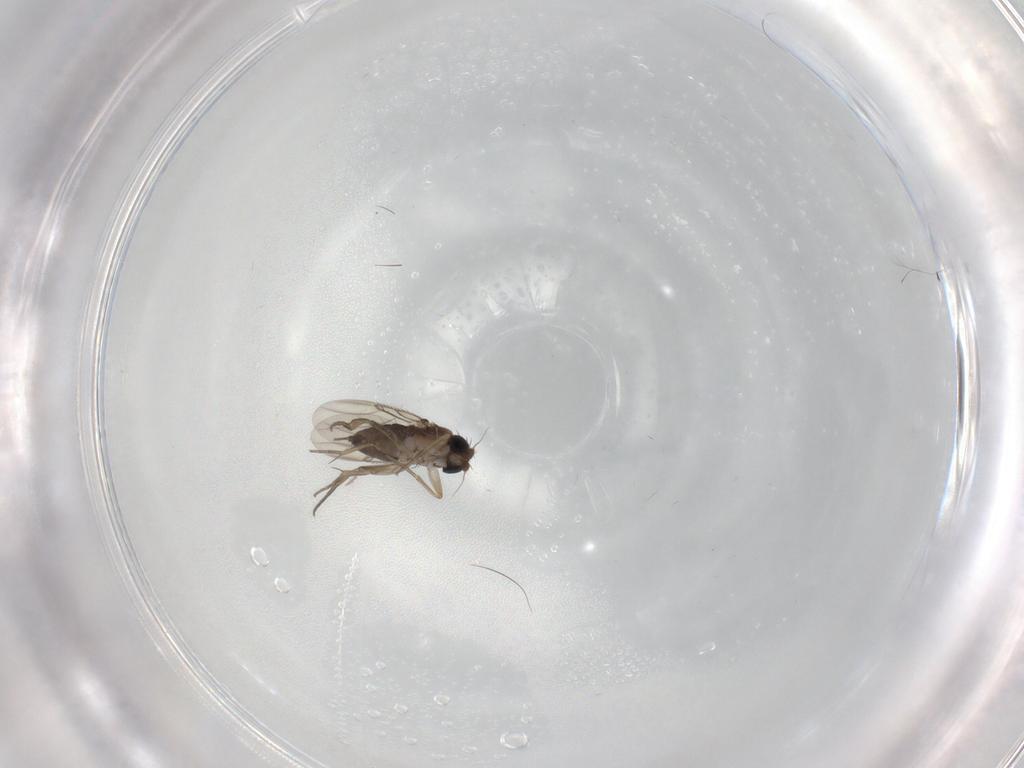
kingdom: Animalia
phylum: Arthropoda
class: Insecta
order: Diptera
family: Phoridae
